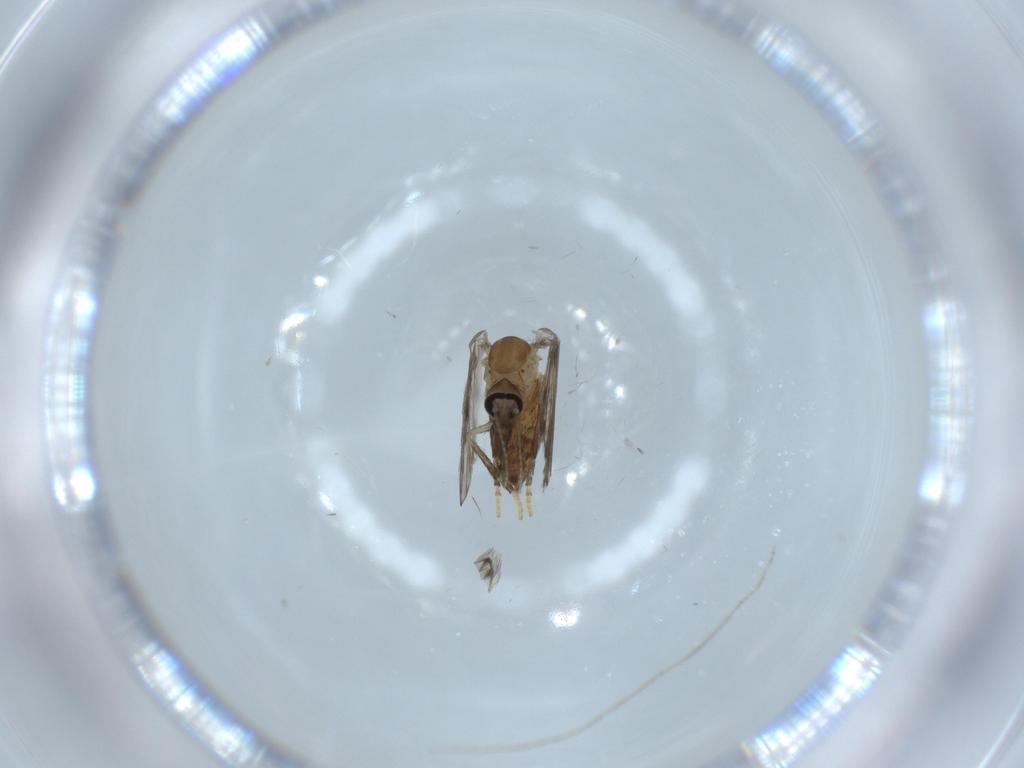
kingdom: Animalia
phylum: Arthropoda
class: Insecta
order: Diptera
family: Psychodidae
